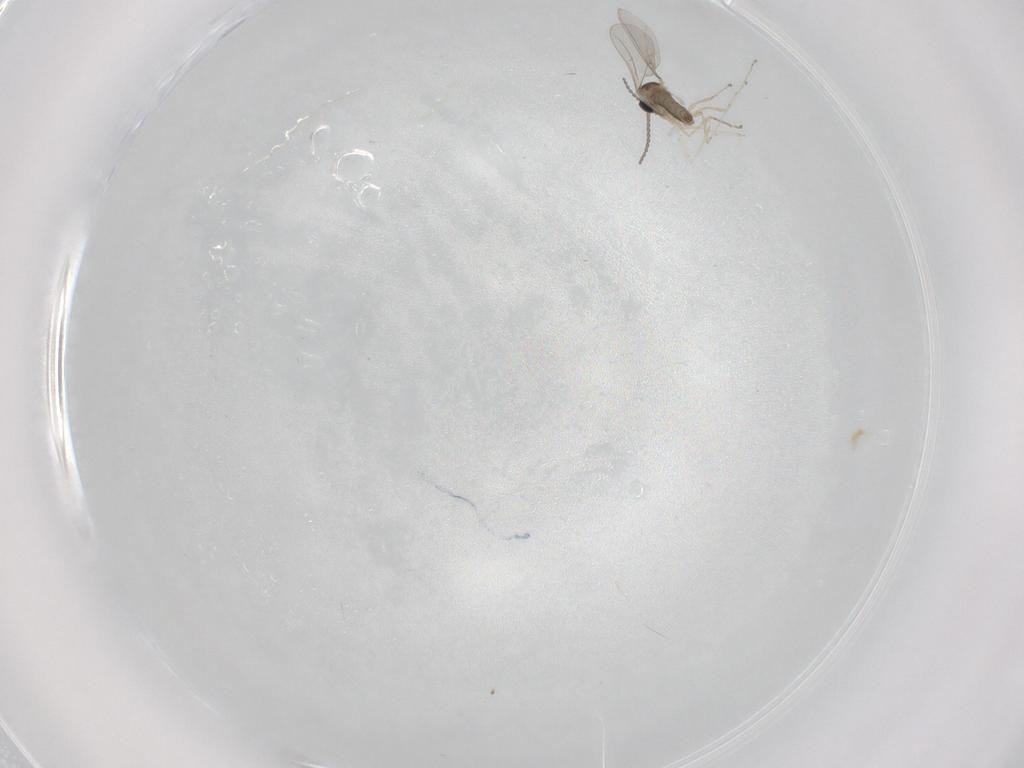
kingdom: Animalia
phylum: Arthropoda
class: Insecta
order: Diptera
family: Cecidomyiidae
